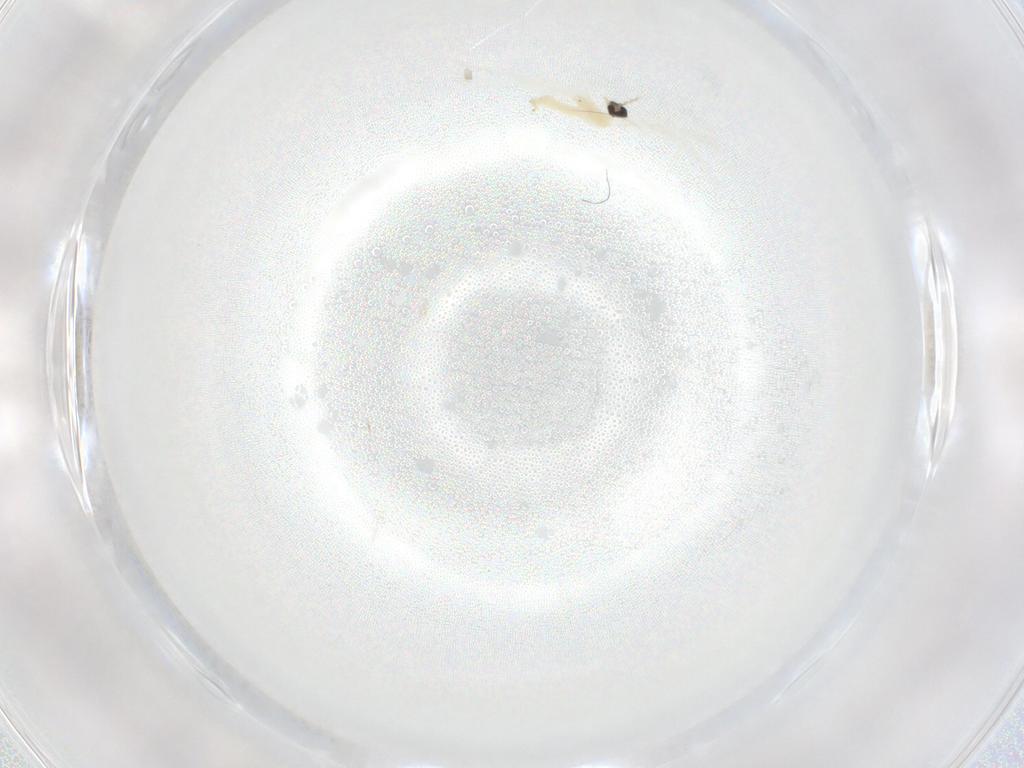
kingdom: Animalia
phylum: Arthropoda
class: Insecta
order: Diptera
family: Cecidomyiidae
